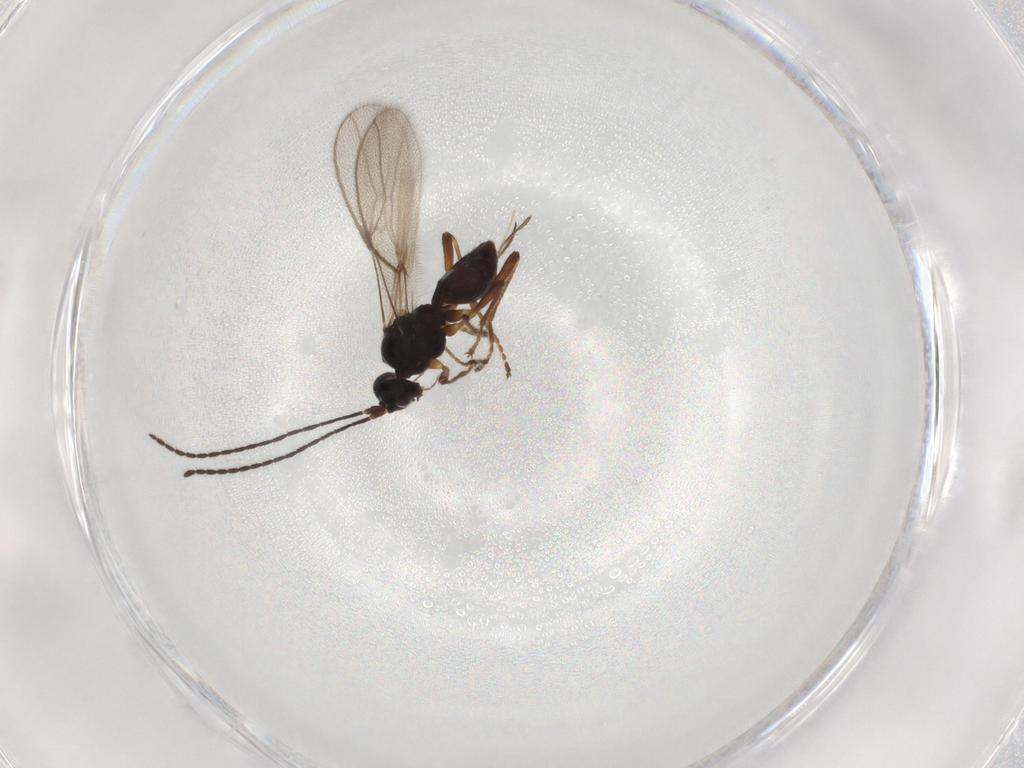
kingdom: Animalia
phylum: Arthropoda
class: Insecta
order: Hymenoptera
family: Braconidae
